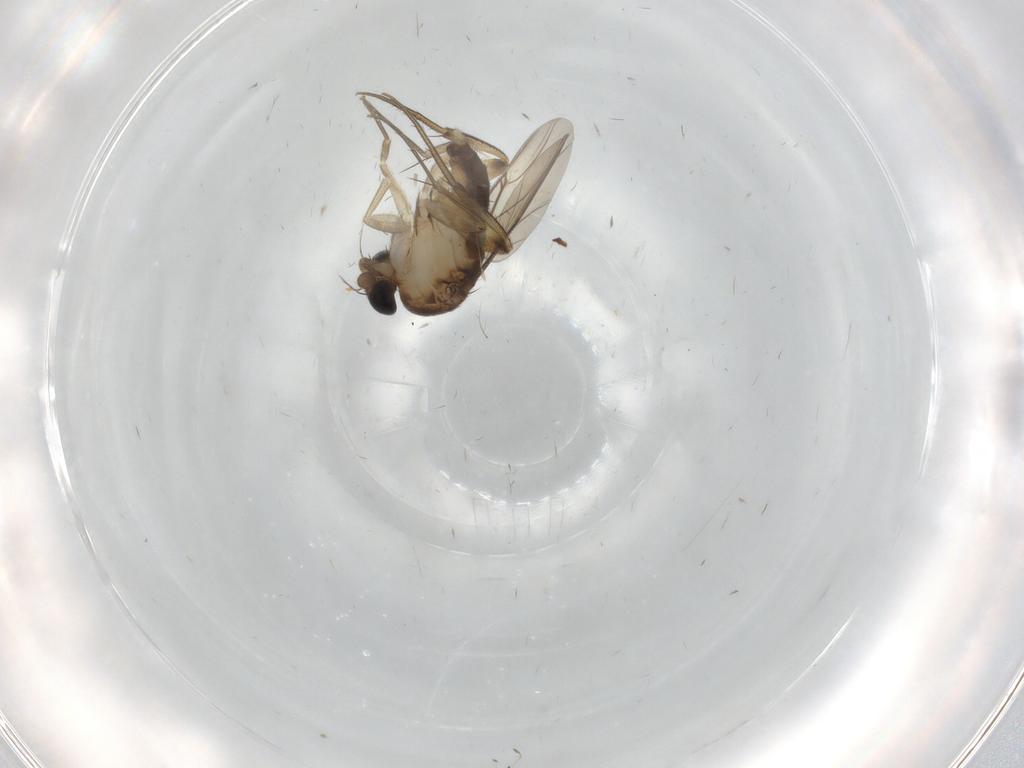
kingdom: Animalia
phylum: Arthropoda
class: Insecta
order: Diptera
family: Phoridae
